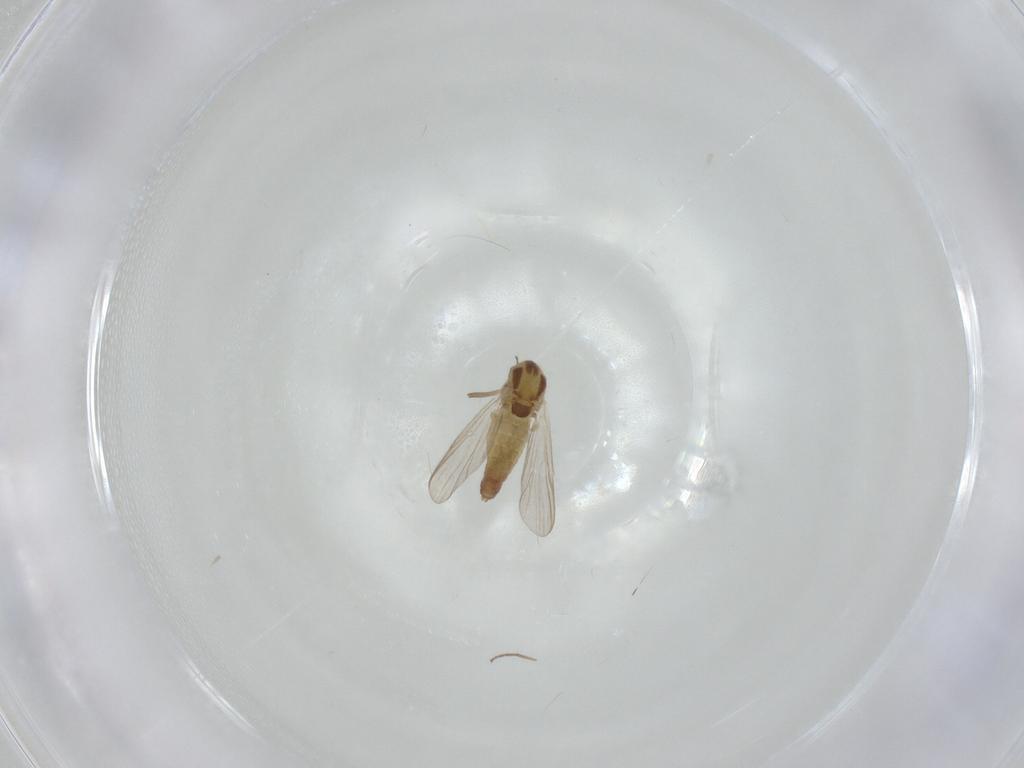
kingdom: Animalia
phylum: Arthropoda
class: Insecta
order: Diptera
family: Chironomidae
